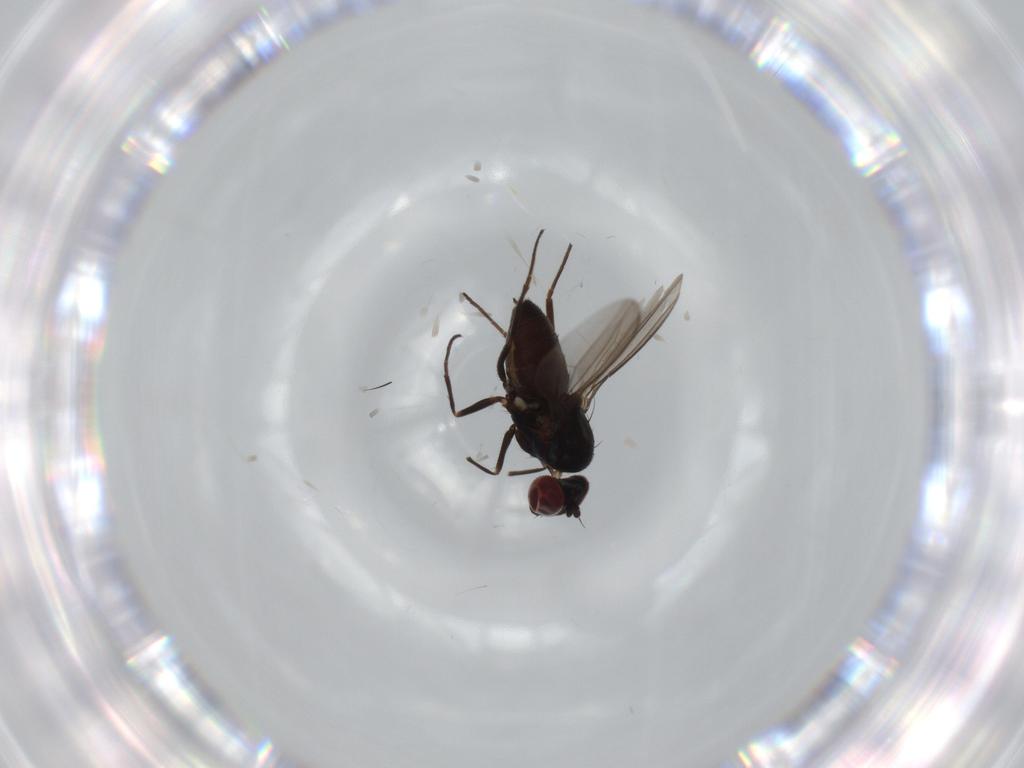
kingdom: Animalia
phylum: Arthropoda
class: Insecta
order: Diptera
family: Dolichopodidae
